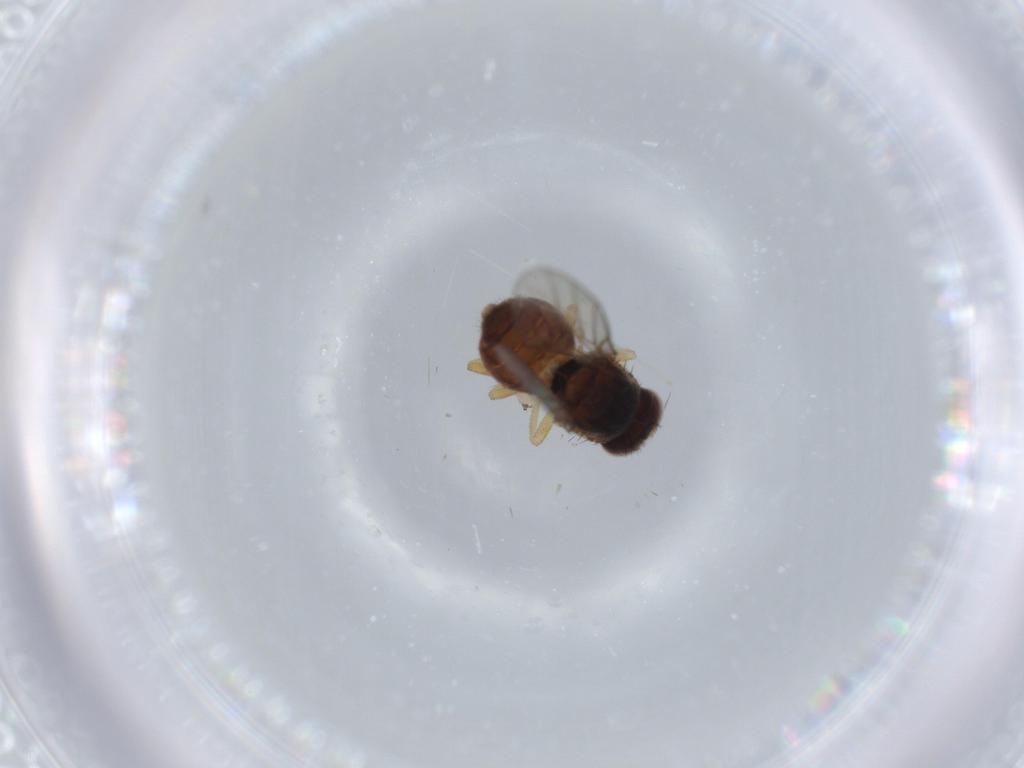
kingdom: Animalia
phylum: Arthropoda
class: Insecta
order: Diptera
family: Chloropidae
